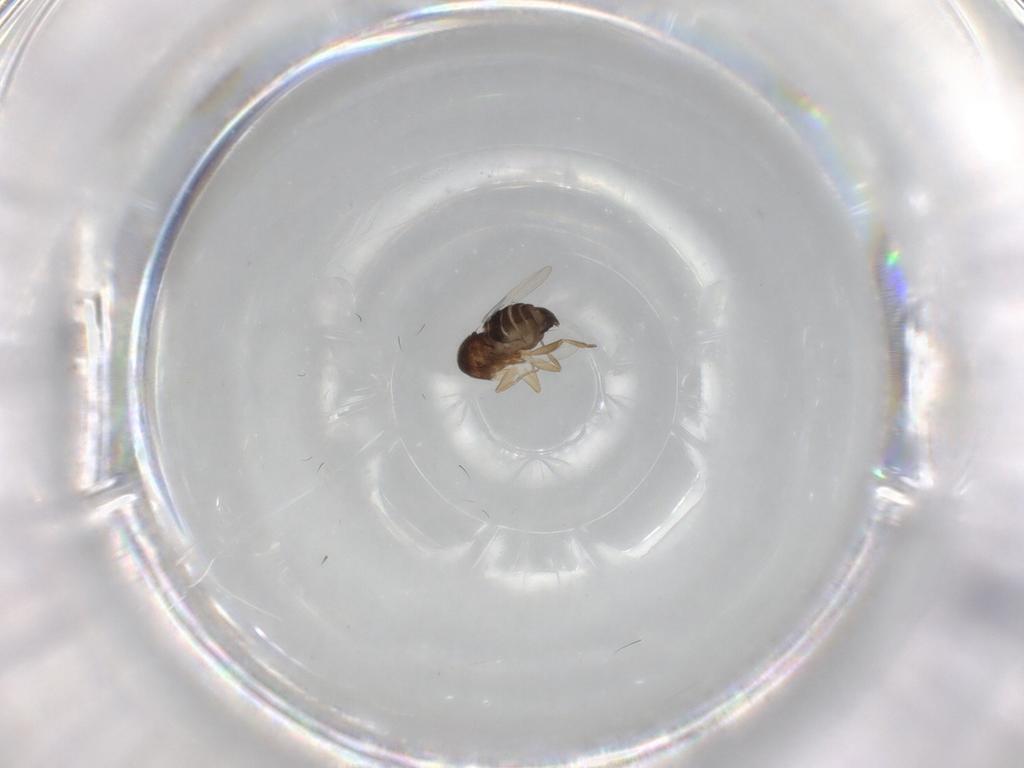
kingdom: Animalia
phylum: Arthropoda
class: Insecta
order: Diptera
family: Phoridae
